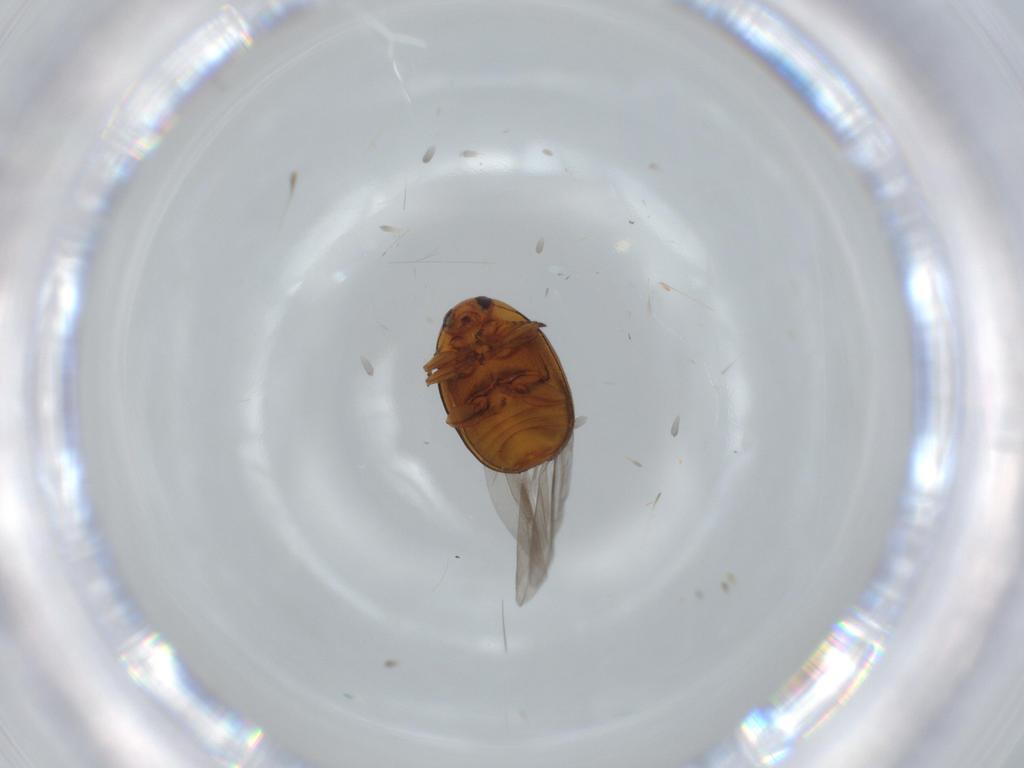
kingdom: Animalia
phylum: Arthropoda
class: Insecta
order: Coleoptera
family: Chrysomelidae
